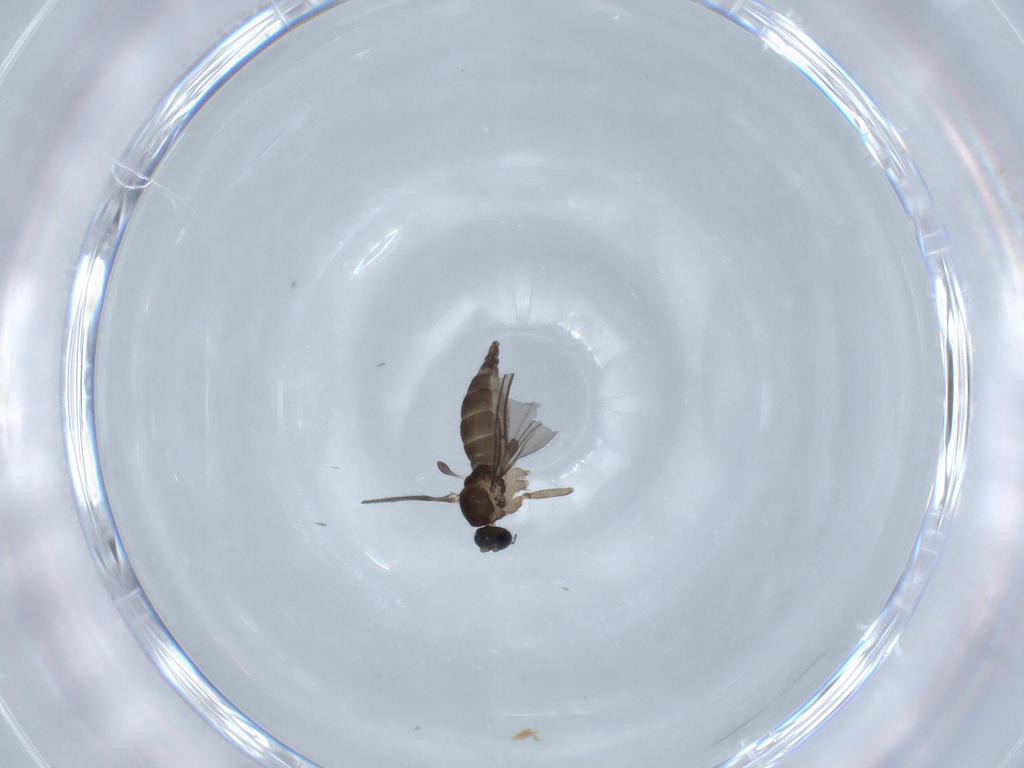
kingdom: Animalia
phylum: Arthropoda
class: Insecta
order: Diptera
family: Sciaridae
